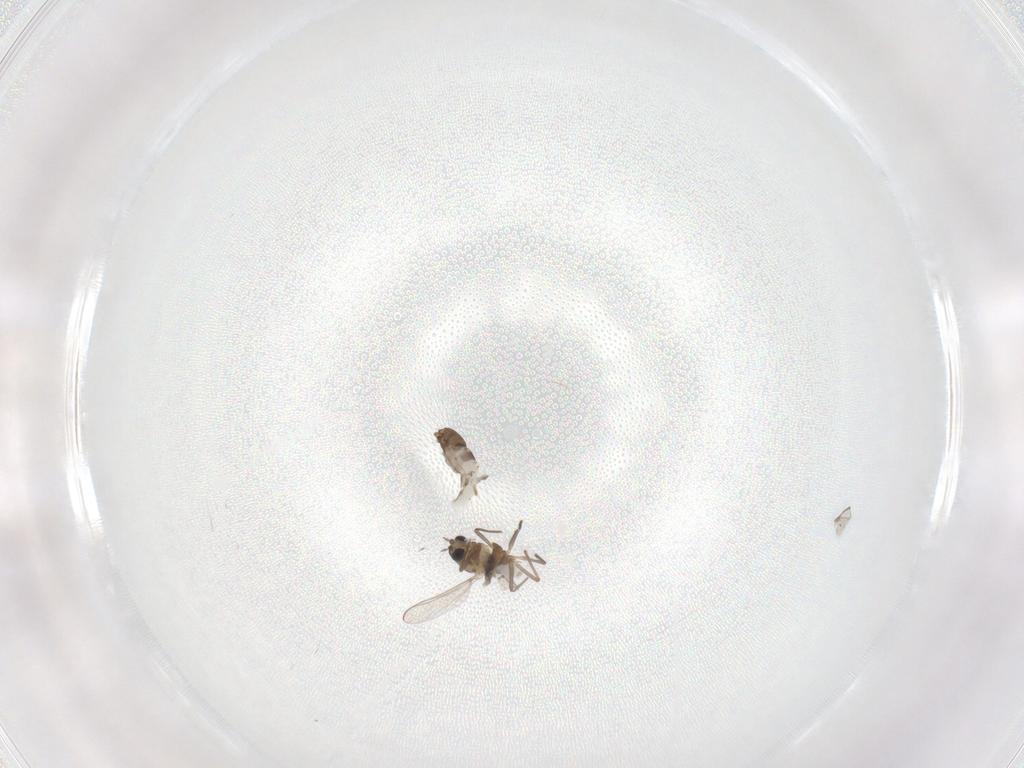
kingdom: Animalia
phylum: Arthropoda
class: Insecta
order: Diptera
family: Chironomidae
